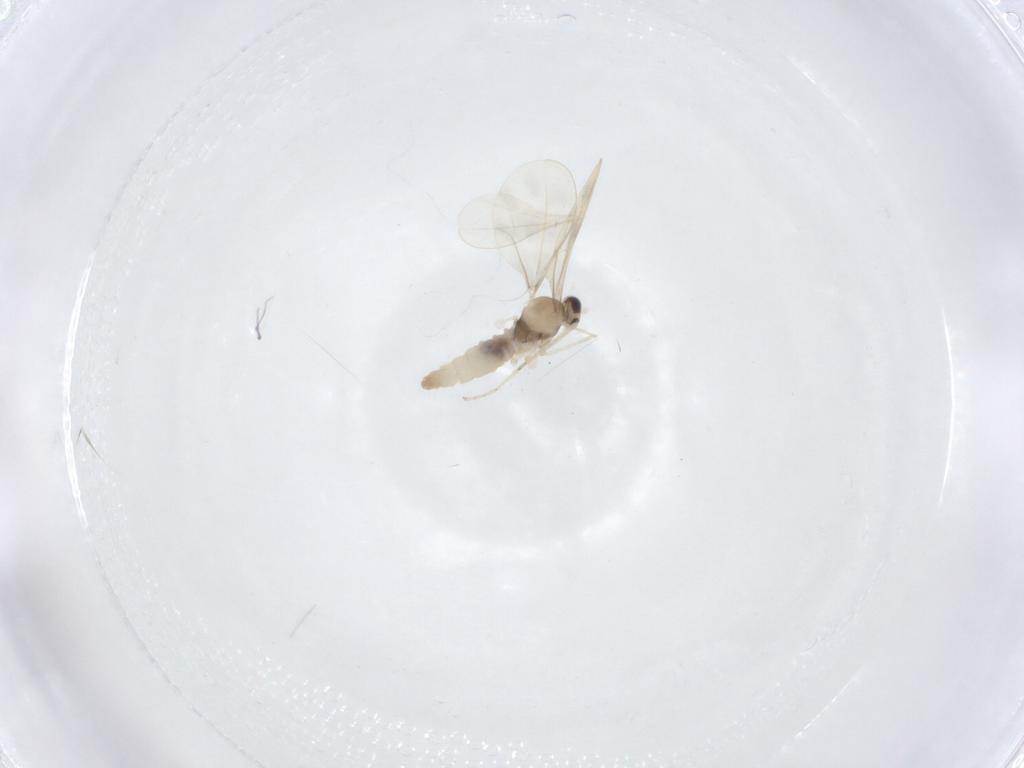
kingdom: Animalia
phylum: Arthropoda
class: Insecta
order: Diptera
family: Cecidomyiidae
